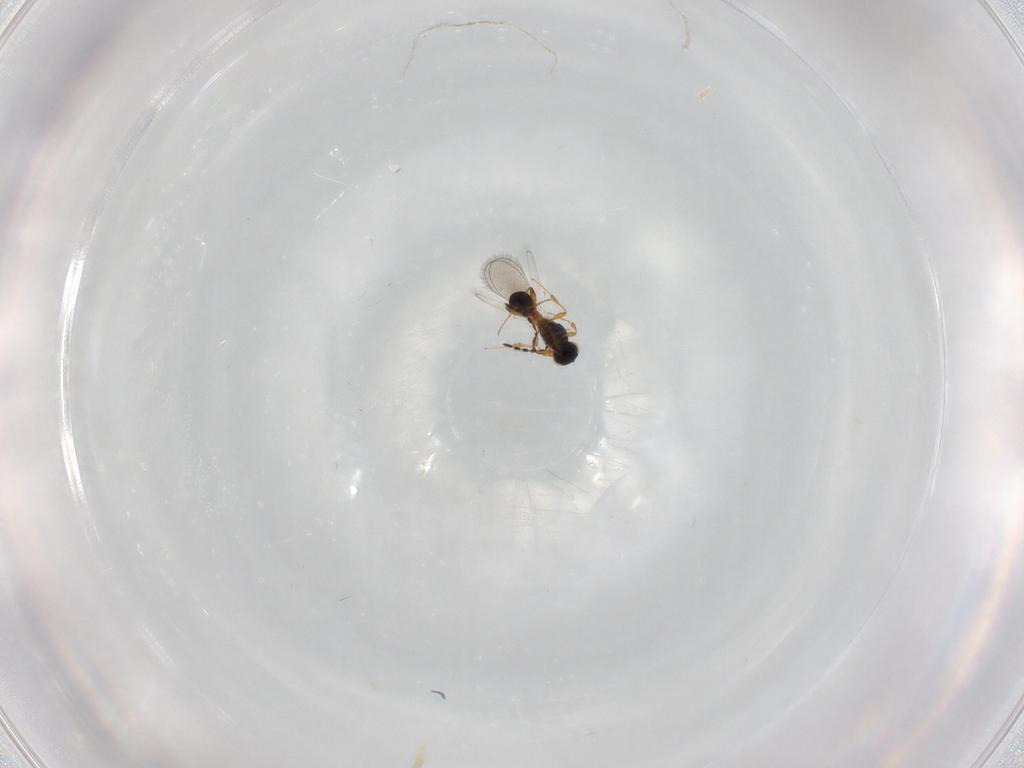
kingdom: Animalia
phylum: Arthropoda
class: Insecta
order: Hymenoptera
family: Platygastridae
